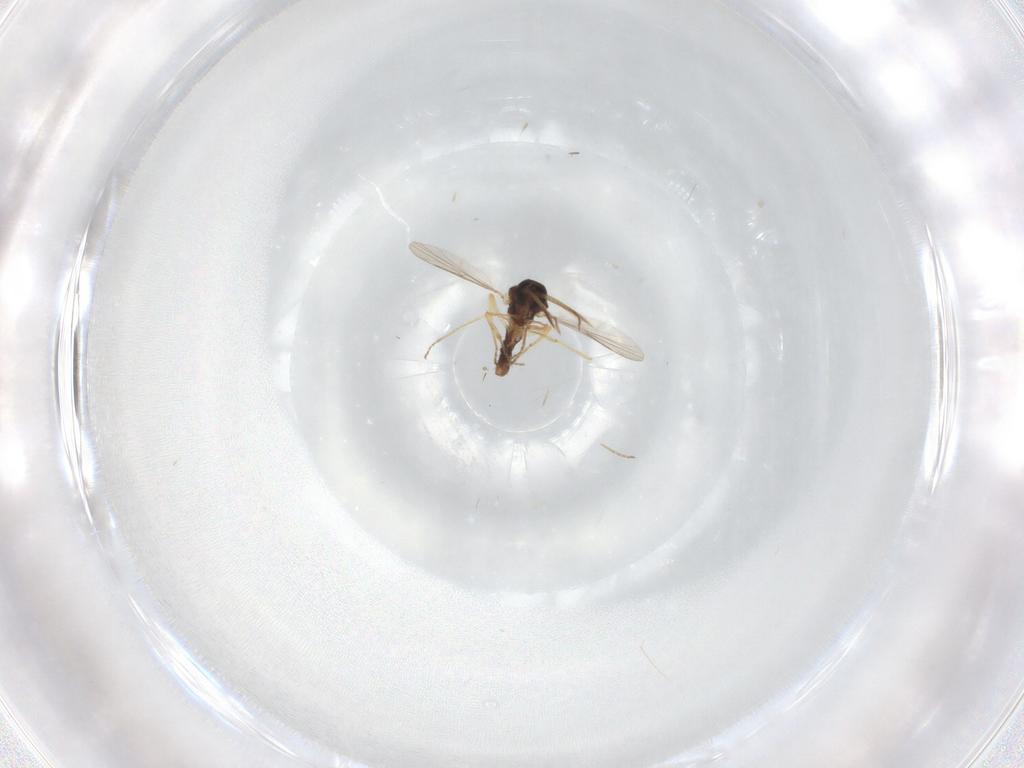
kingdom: Animalia
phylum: Arthropoda
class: Insecta
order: Diptera
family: Ceratopogonidae
